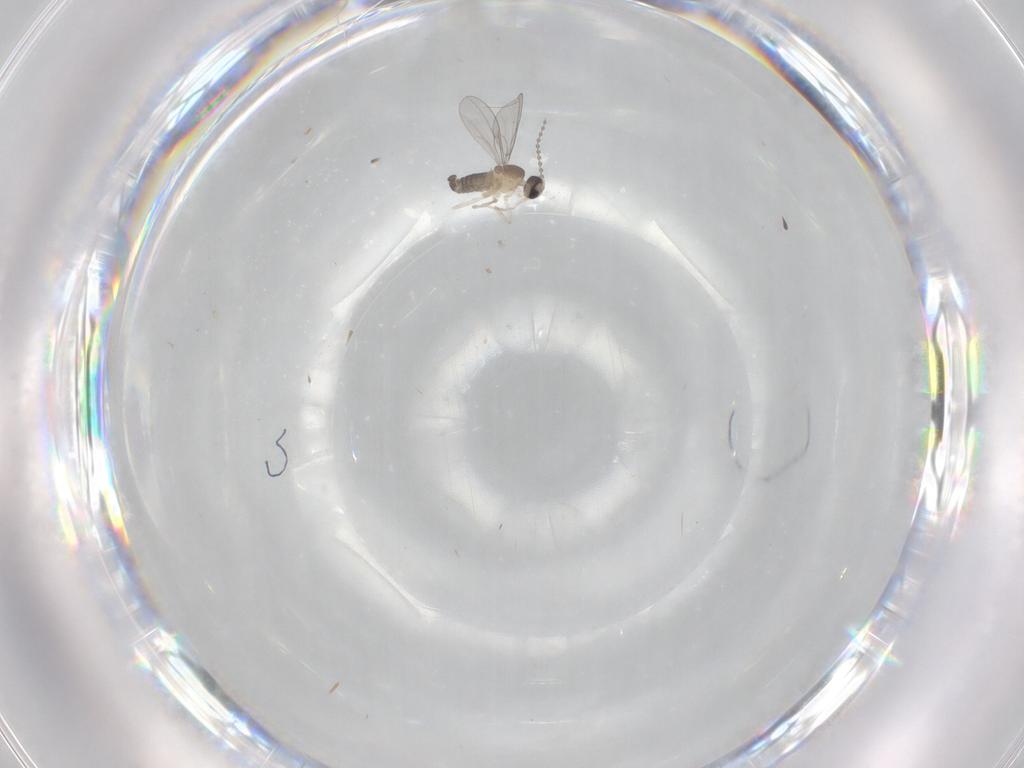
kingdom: Animalia
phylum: Arthropoda
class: Insecta
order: Diptera
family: Cecidomyiidae
